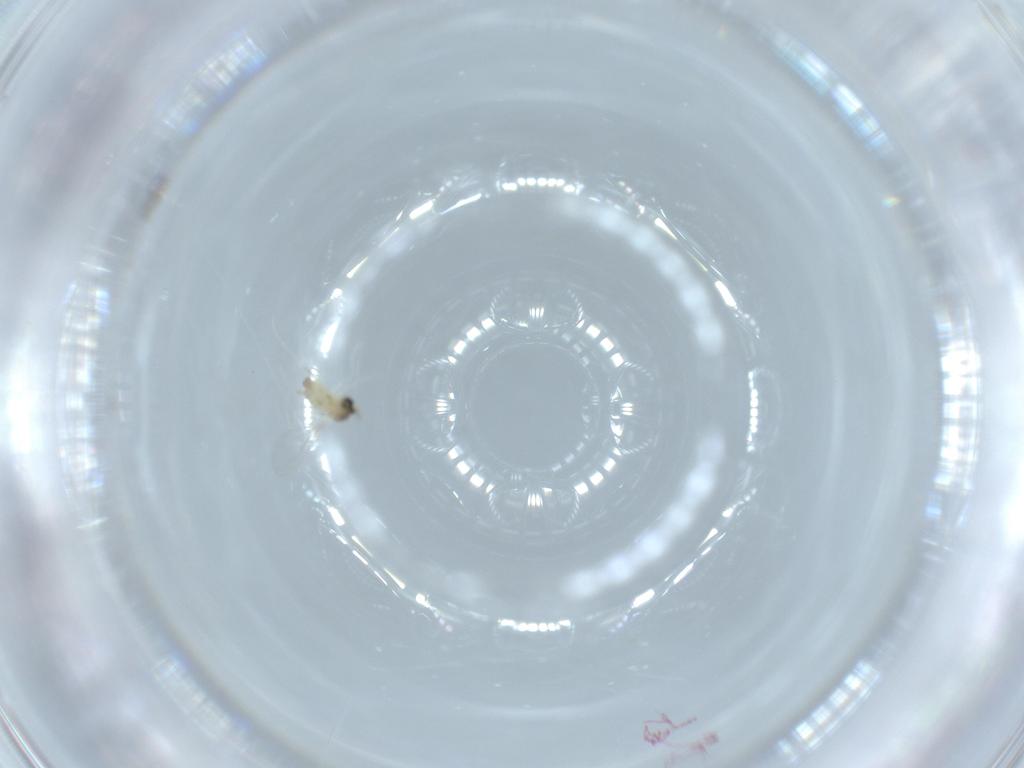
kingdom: Animalia
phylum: Arthropoda
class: Insecta
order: Diptera
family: Cecidomyiidae
